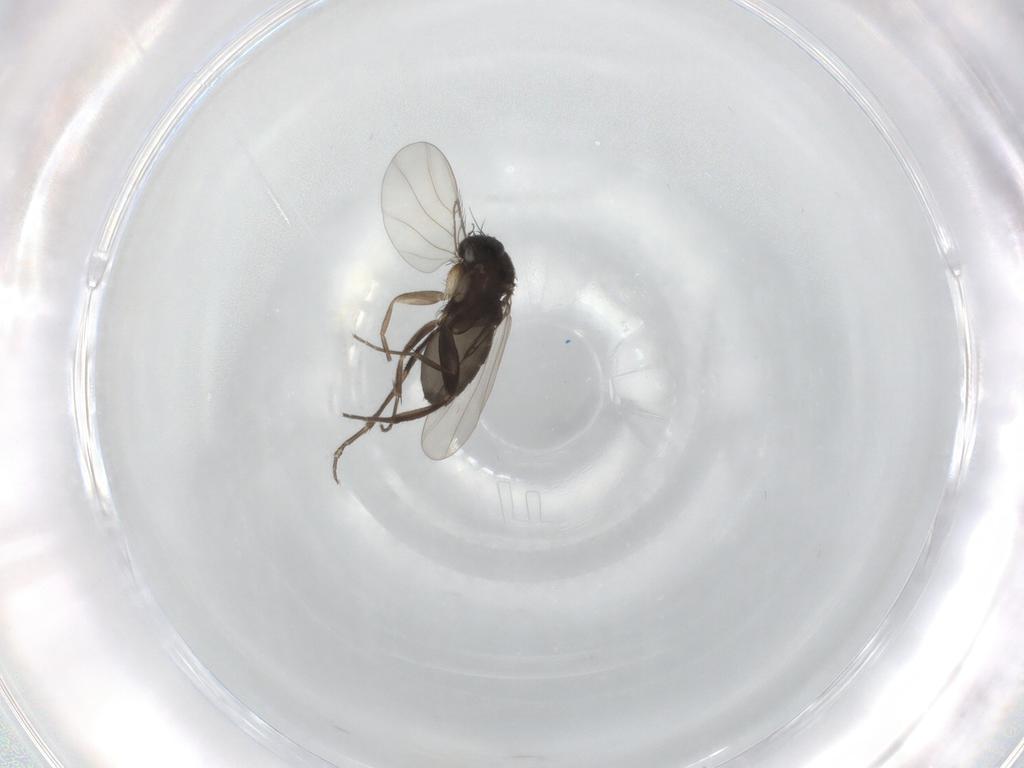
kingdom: Animalia
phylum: Arthropoda
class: Insecta
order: Diptera
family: Phoridae
